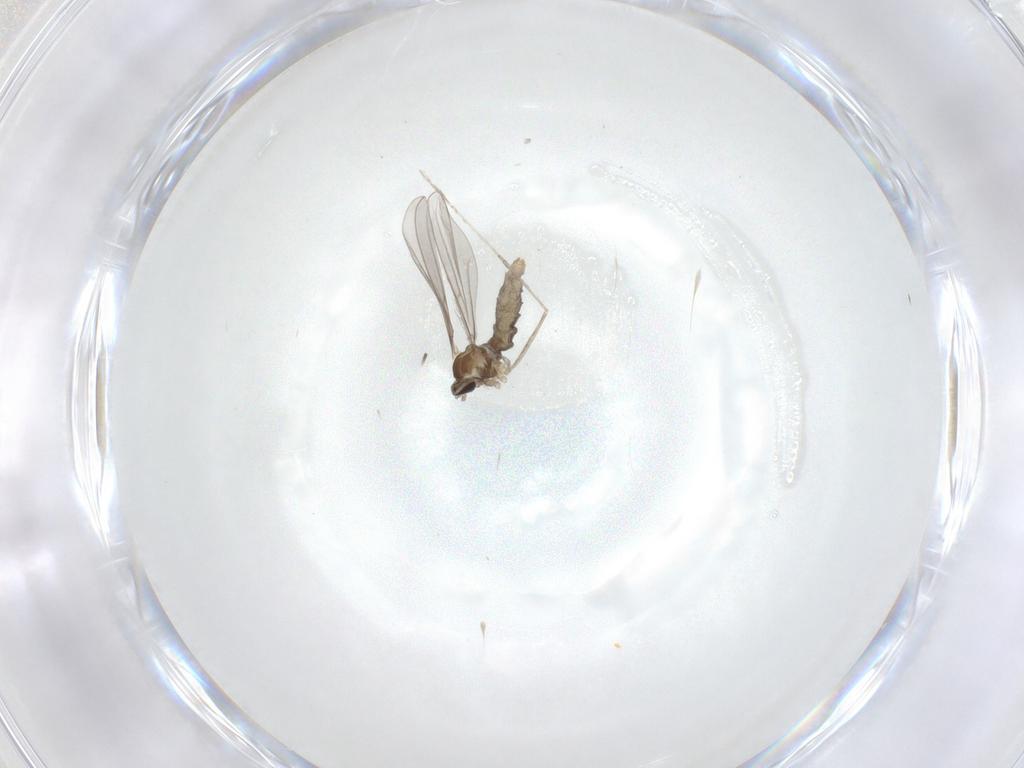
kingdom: Animalia
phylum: Arthropoda
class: Insecta
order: Diptera
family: Cecidomyiidae
